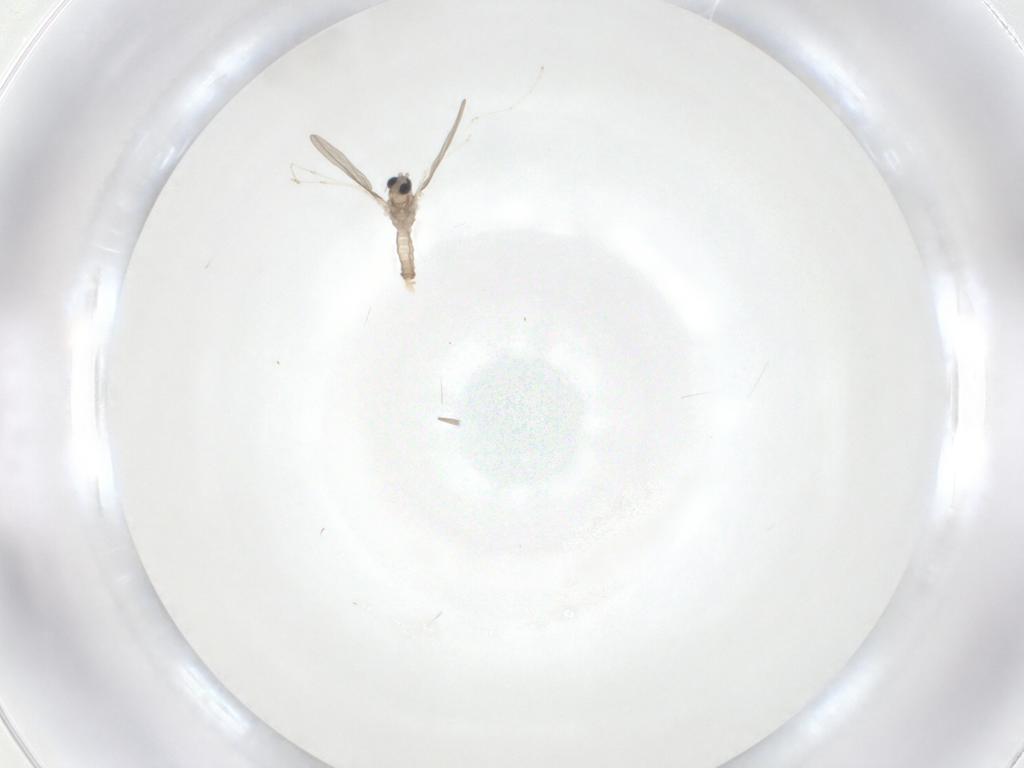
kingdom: Animalia
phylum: Arthropoda
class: Insecta
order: Diptera
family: Cecidomyiidae
